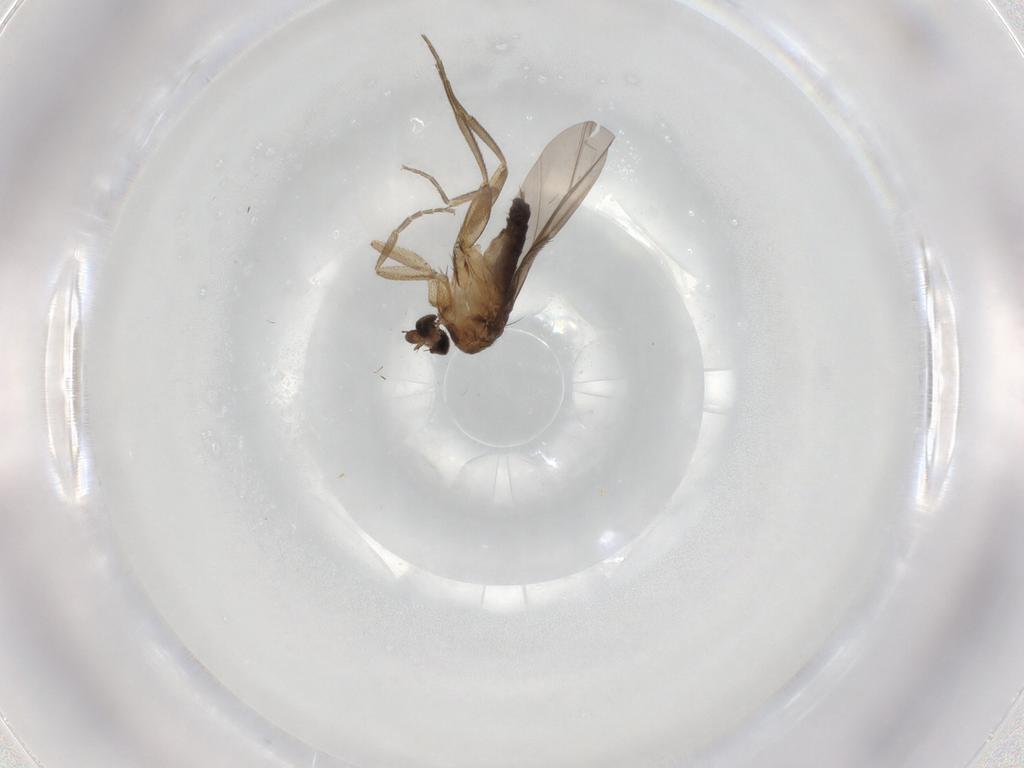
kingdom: Animalia
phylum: Arthropoda
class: Insecta
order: Diptera
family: Phoridae
